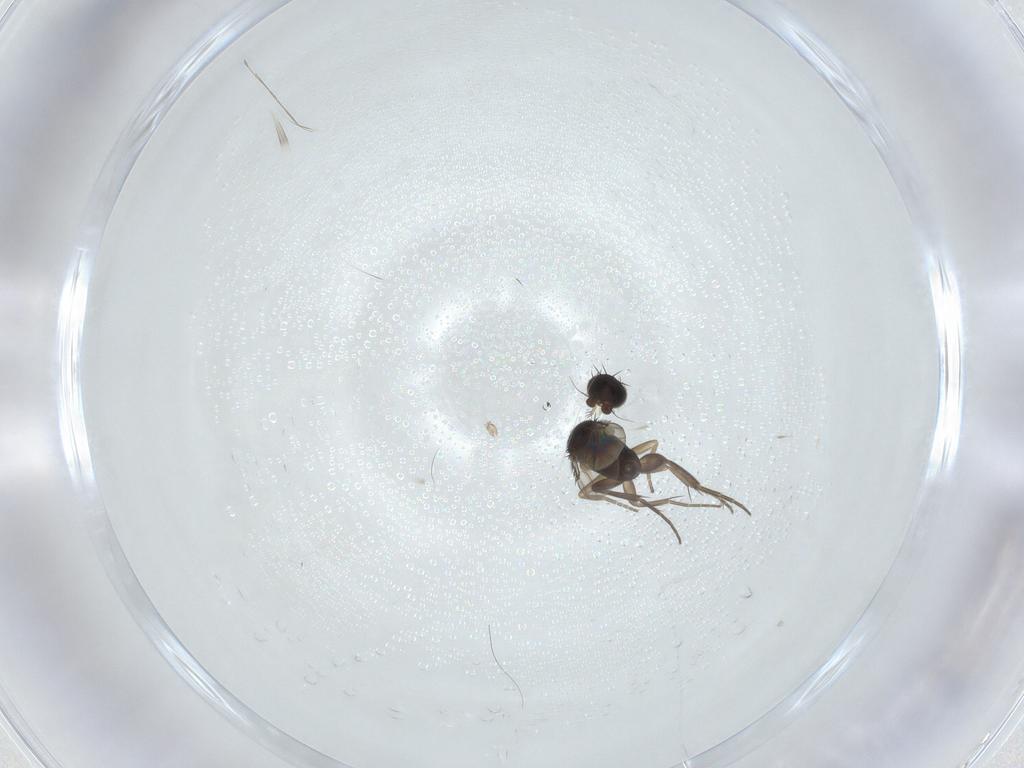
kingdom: Animalia
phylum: Arthropoda
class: Insecta
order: Diptera
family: Phoridae
